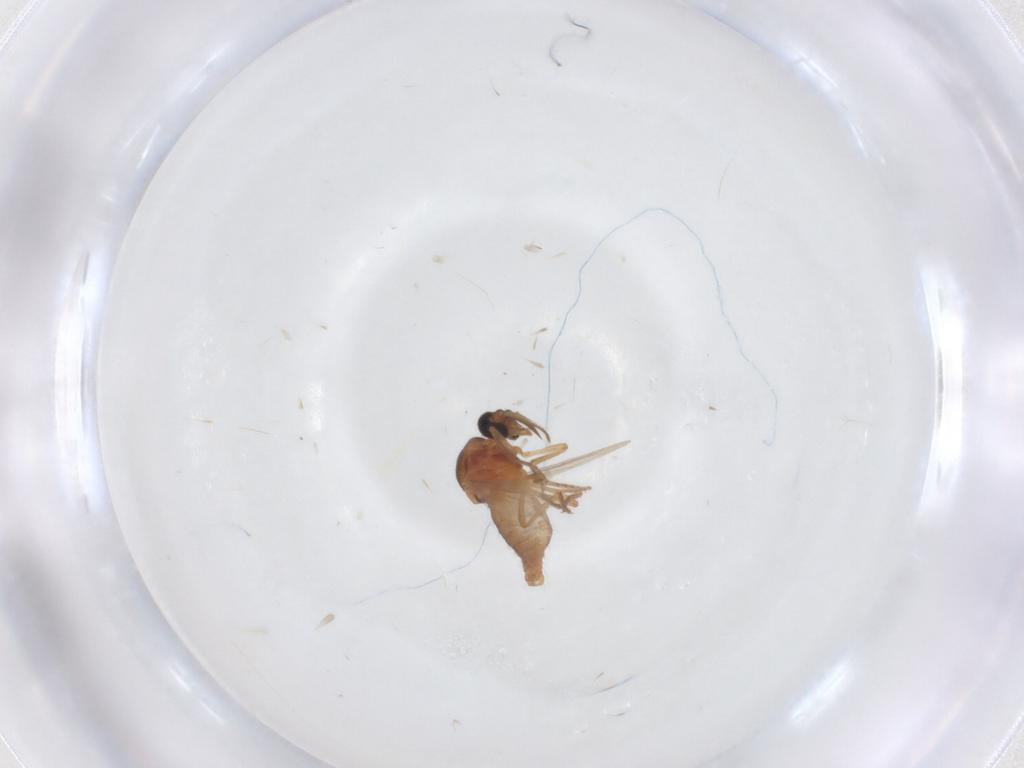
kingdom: Animalia
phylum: Arthropoda
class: Insecta
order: Diptera
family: Ceratopogonidae
